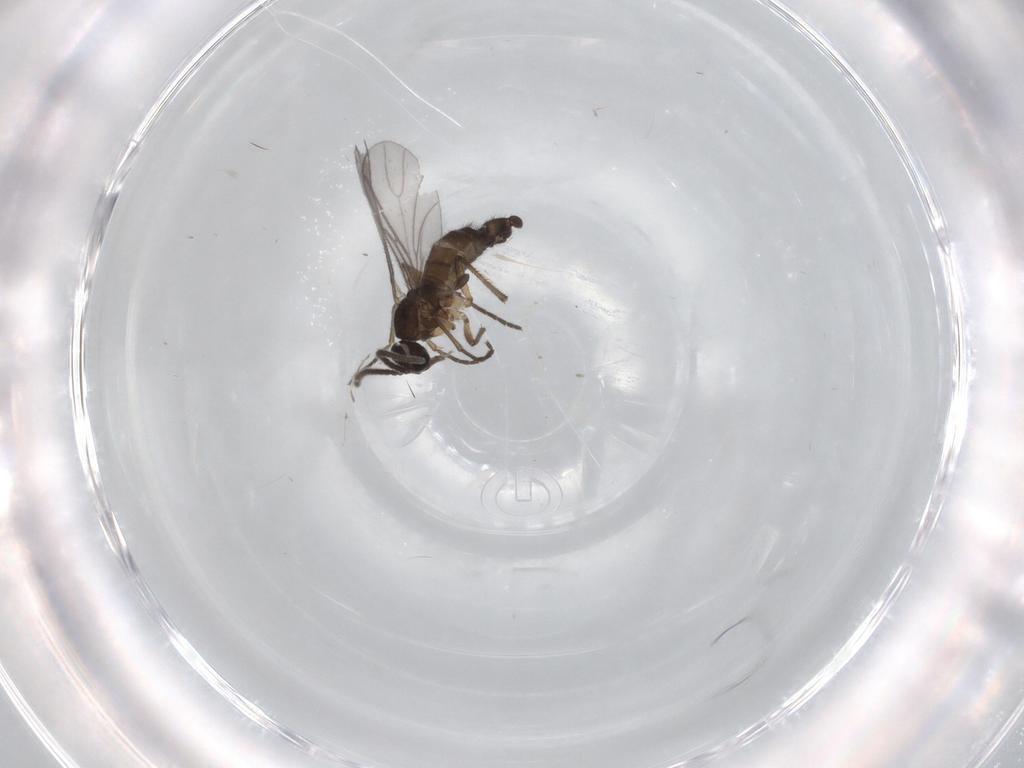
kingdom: Animalia
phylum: Arthropoda
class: Insecta
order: Diptera
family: Sciaridae
